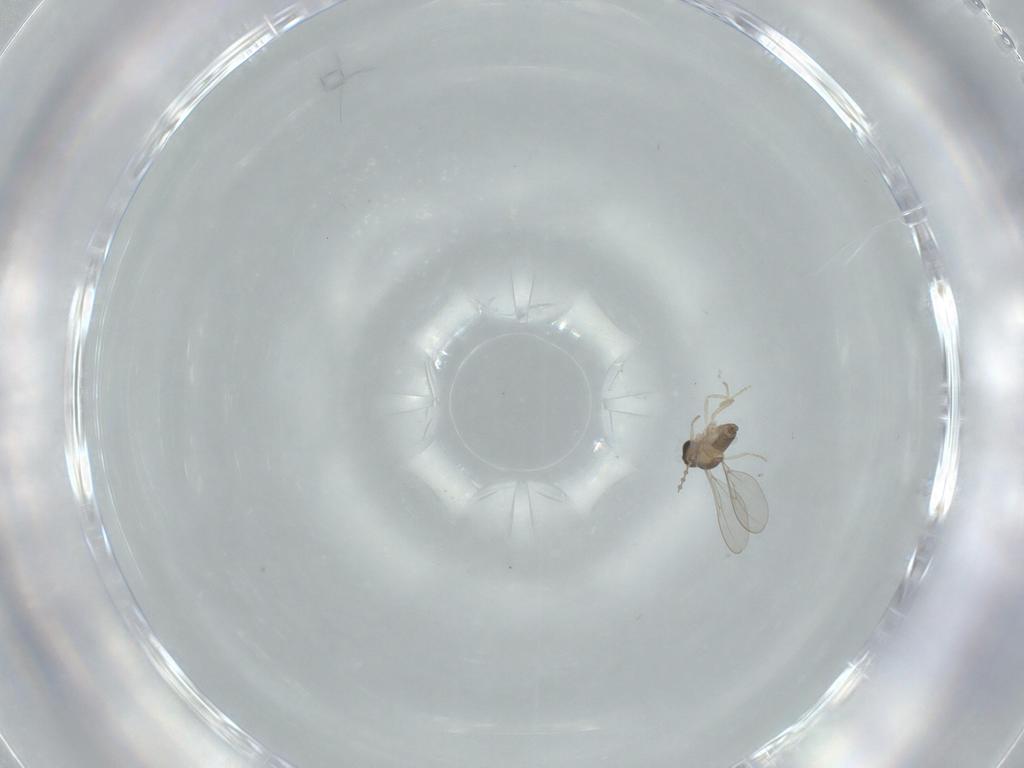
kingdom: Animalia
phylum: Arthropoda
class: Insecta
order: Diptera
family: Cecidomyiidae
